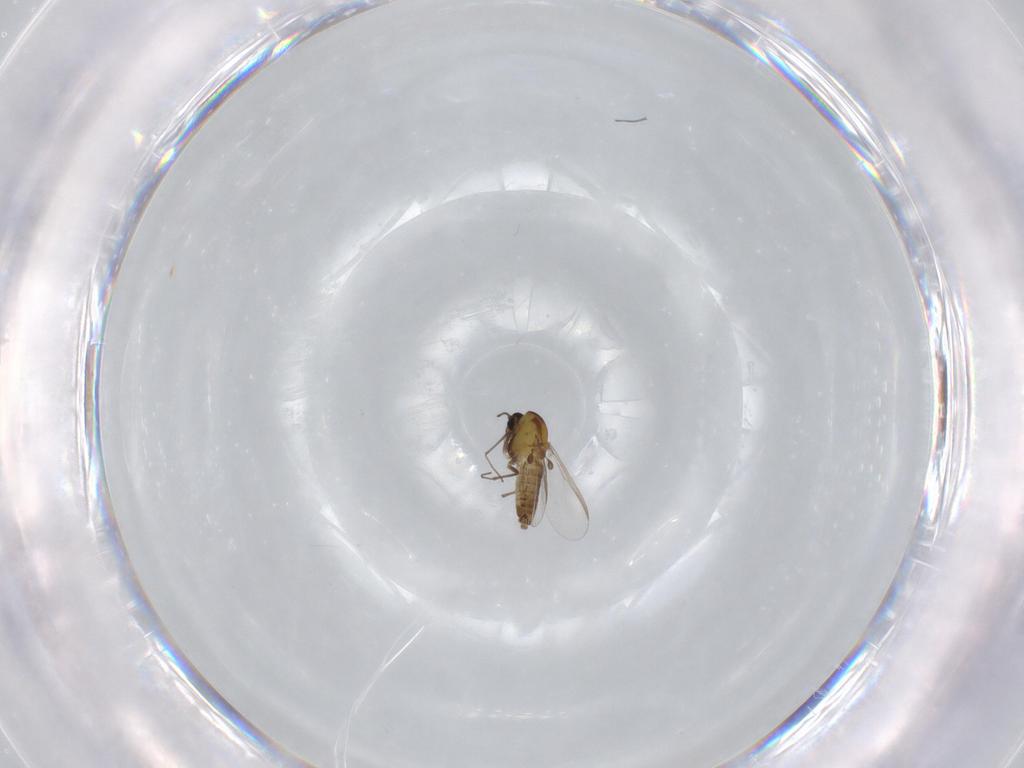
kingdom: Animalia
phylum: Arthropoda
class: Insecta
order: Diptera
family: Chironomidae
